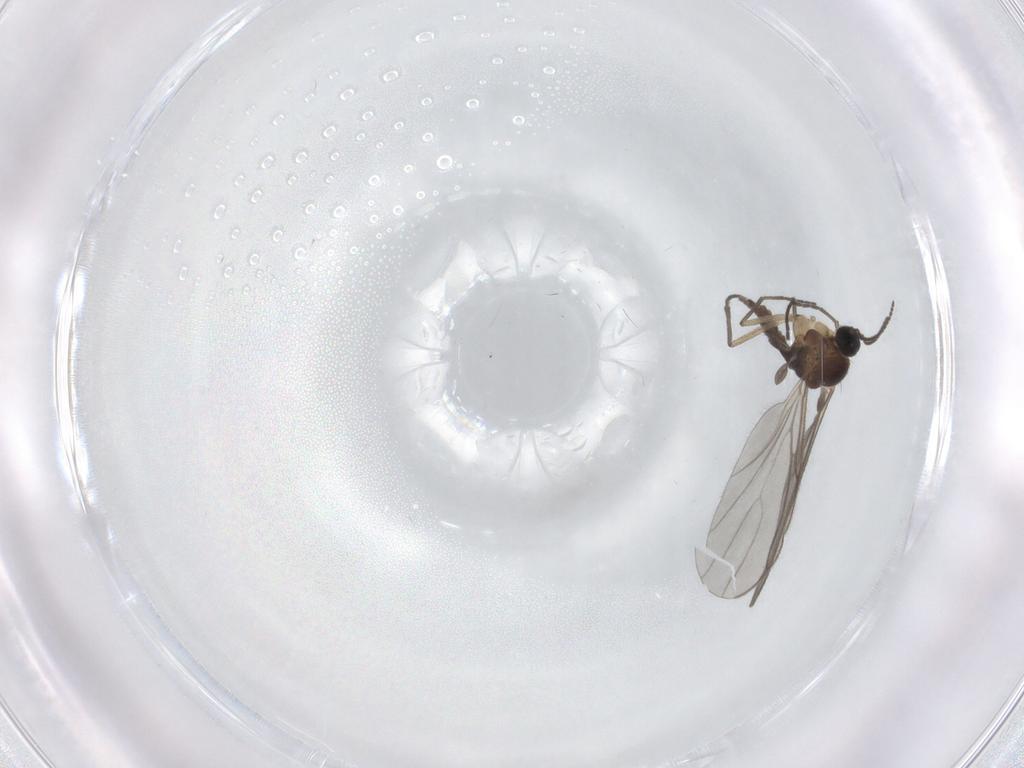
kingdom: Animalia
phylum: Arthropoda
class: Insecta
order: Diptera
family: Sciaridae
